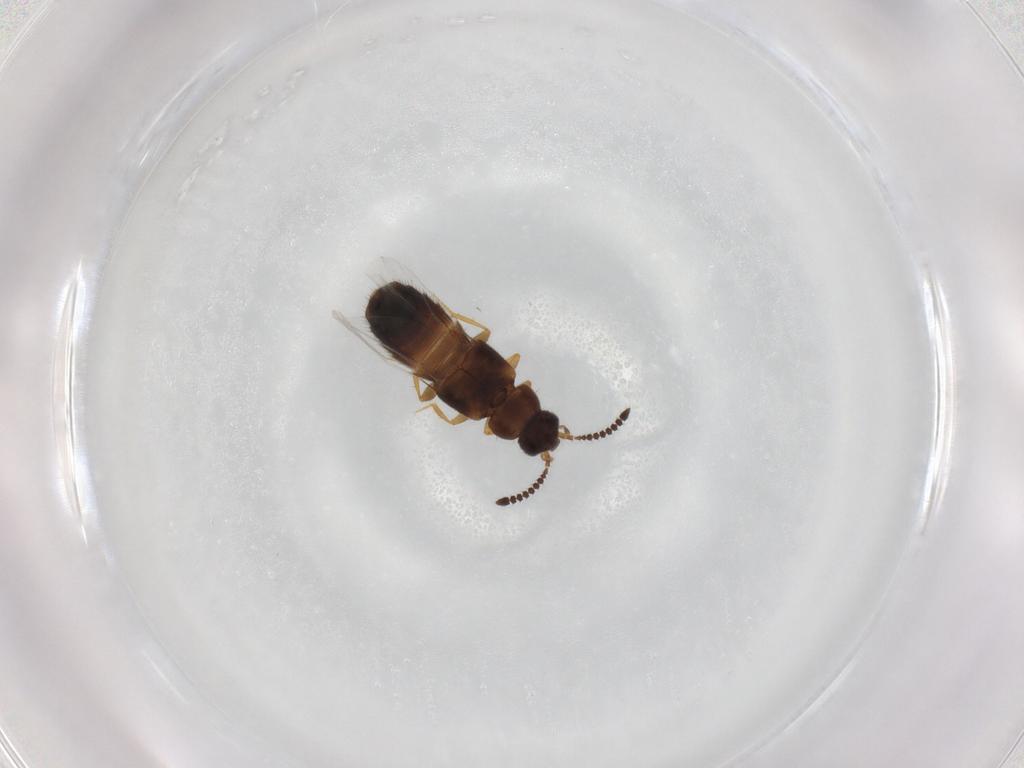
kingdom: Animalia
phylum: Arthropoda
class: Insecta
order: Coleoptera
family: Staphylinidae
